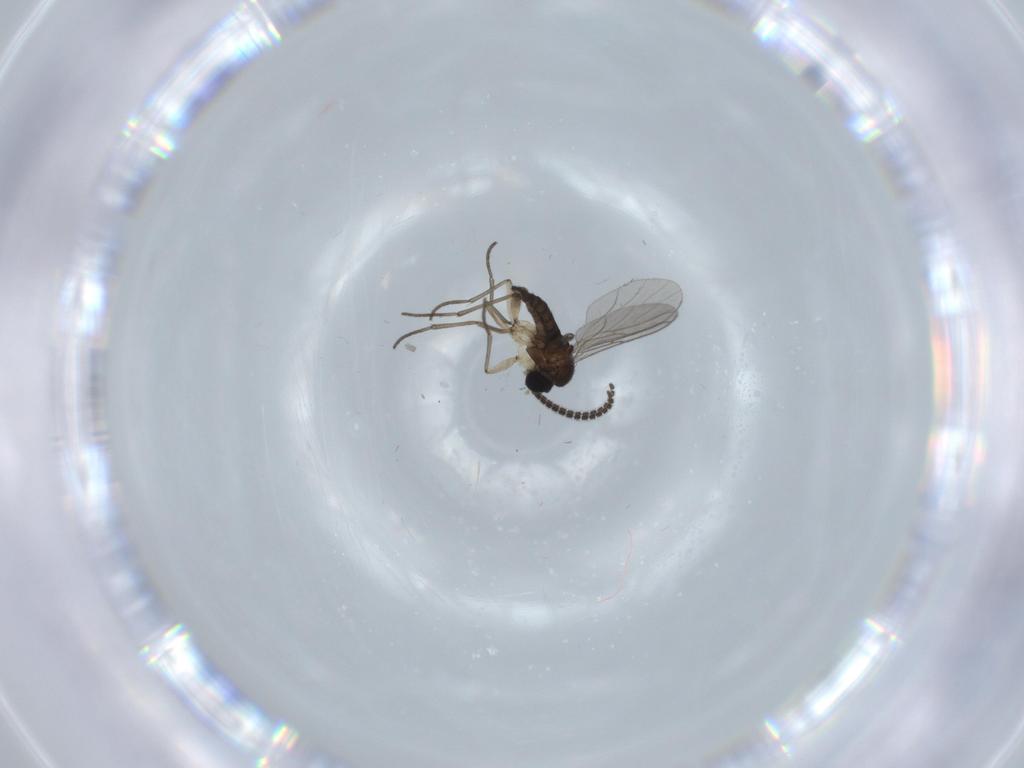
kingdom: Animalia
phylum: Arthropoda
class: Insecta
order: Diptera
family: Sciaridae
